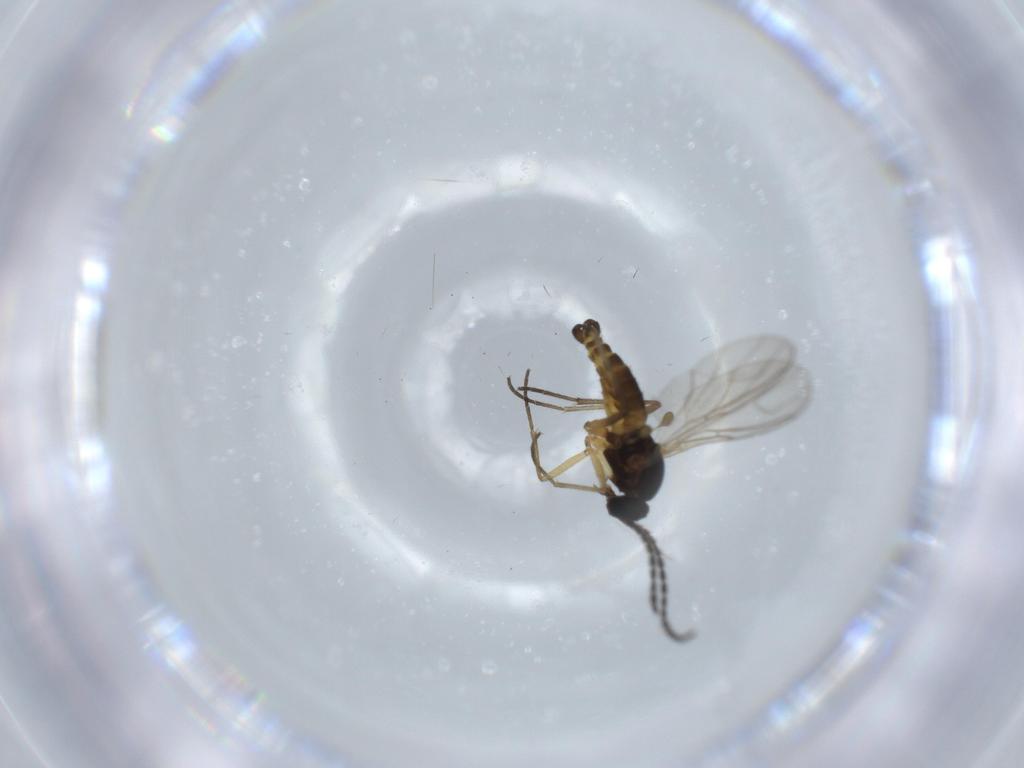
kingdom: Animalia
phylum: Arthropoda
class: Insecta
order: Diptera
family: Sciaridae
